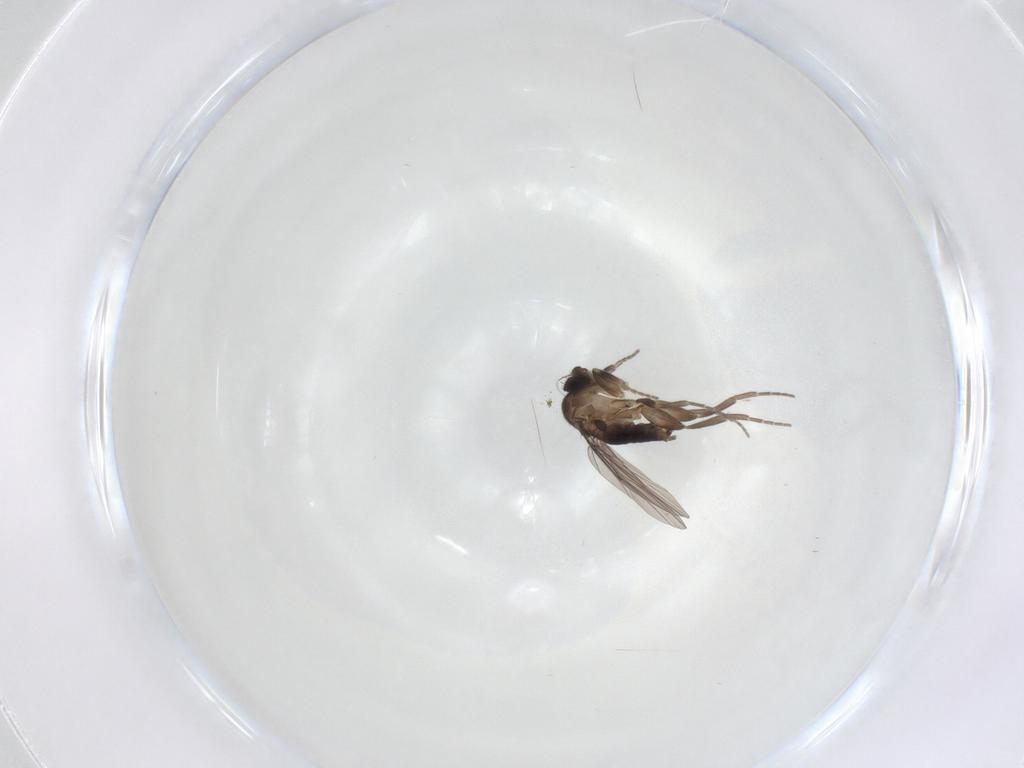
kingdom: Animalia
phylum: Arthropoda
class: Insecta
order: Diptera
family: Phoridae
